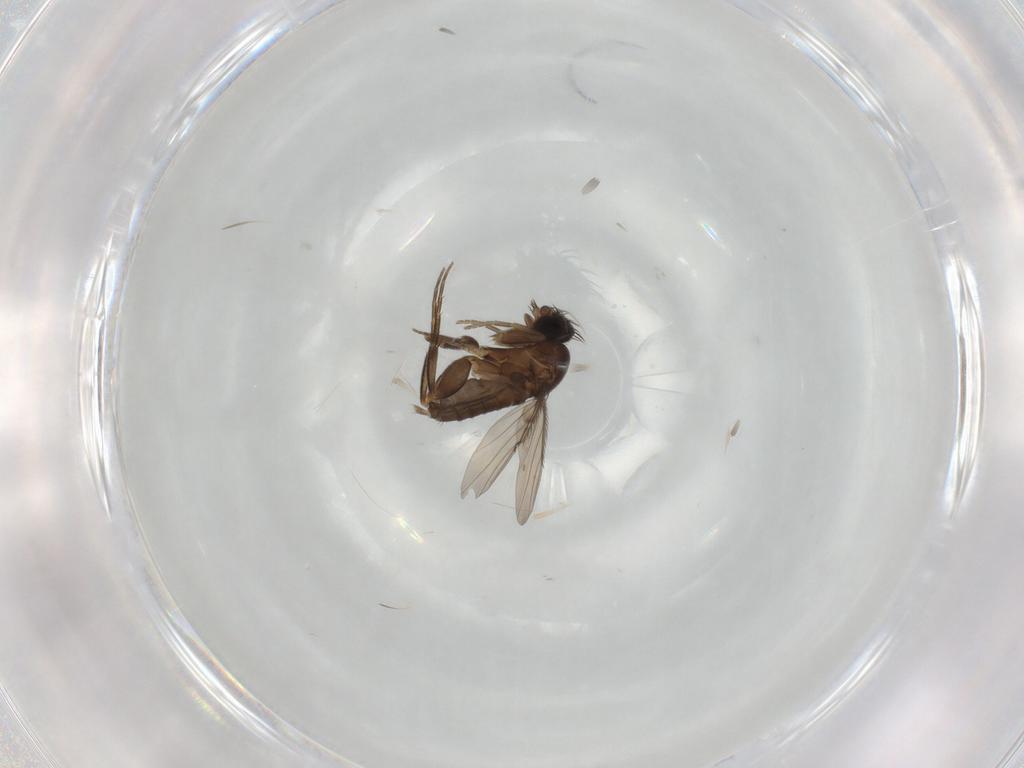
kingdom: Animalia
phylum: Arthropoda
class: Insecta
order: Diptera
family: Phoridae
